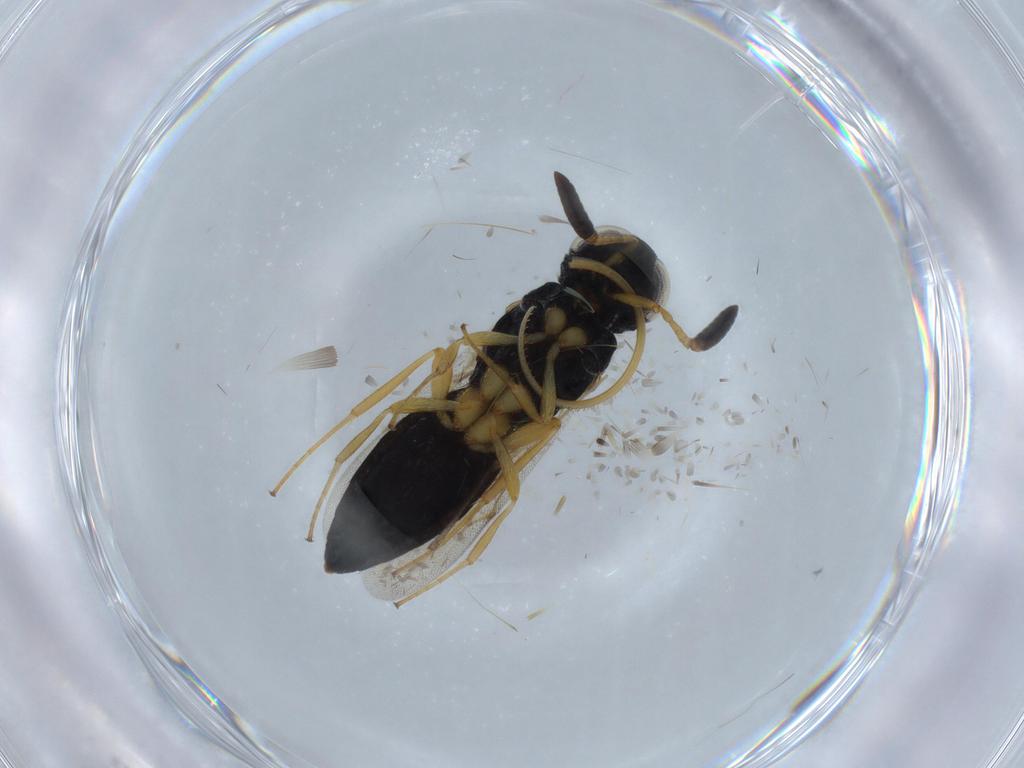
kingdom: Animalia
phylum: Arthropoda
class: Insecta
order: Hymenoptera
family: Scelionidae
